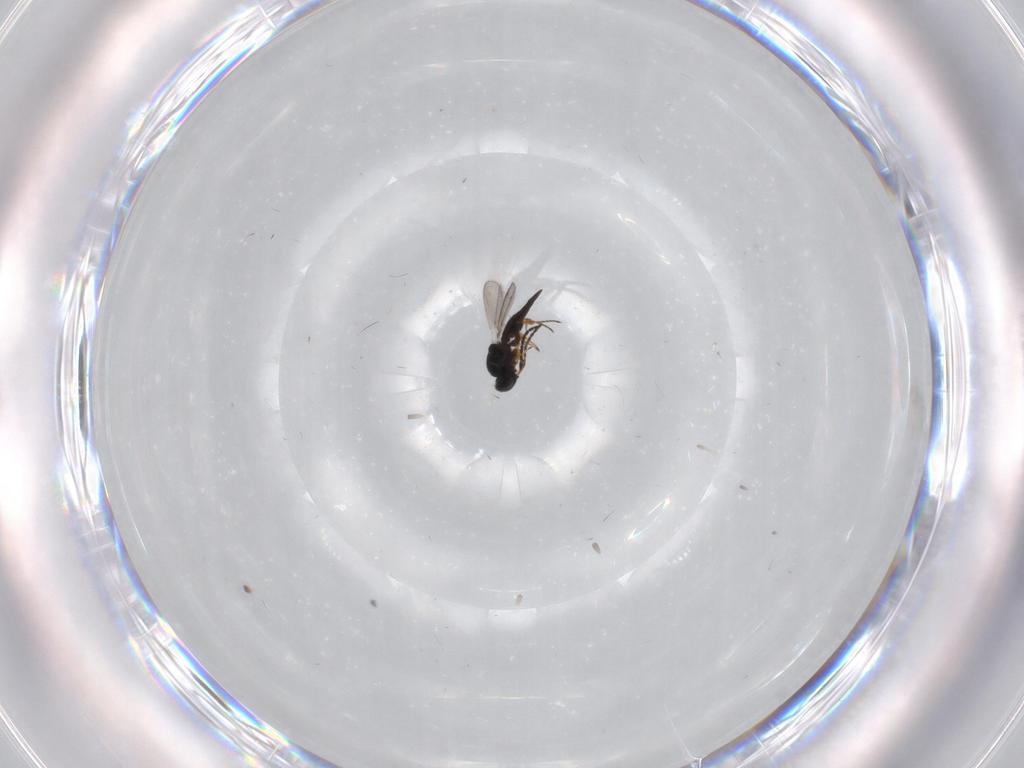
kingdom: Animalia
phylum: Arthropoda
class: Insecta
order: Hymenoptera
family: Platygastridae
